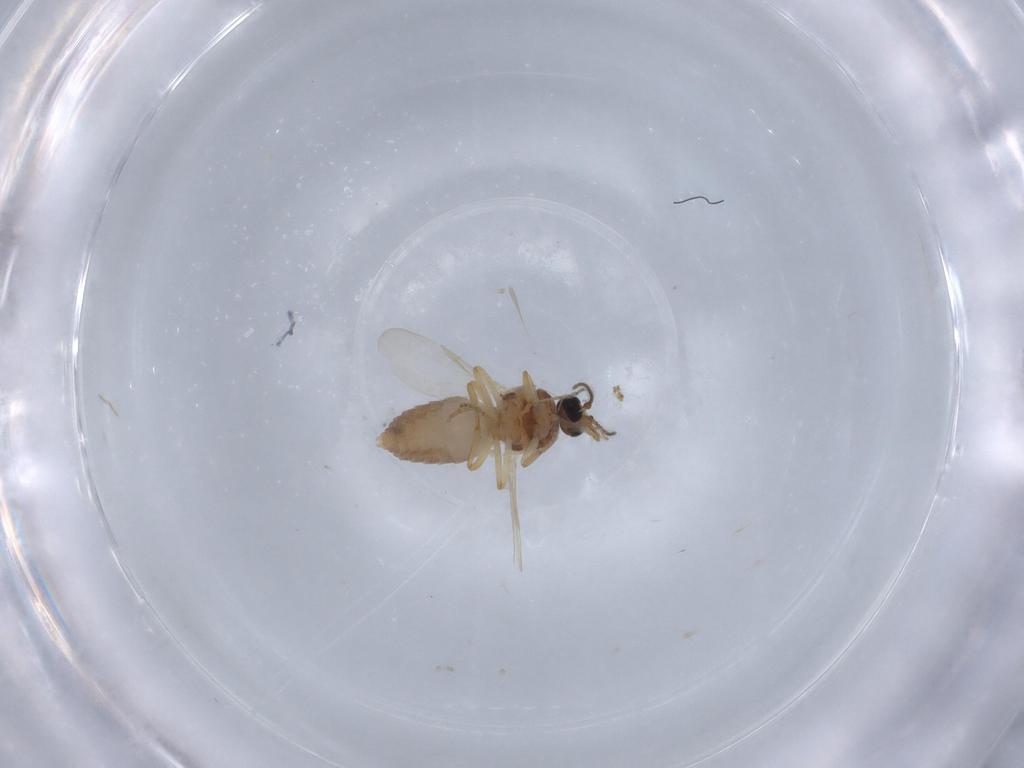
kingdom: Animalia
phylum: Arthropoda
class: Insecta
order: Diptera
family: Ceratopogonidae
